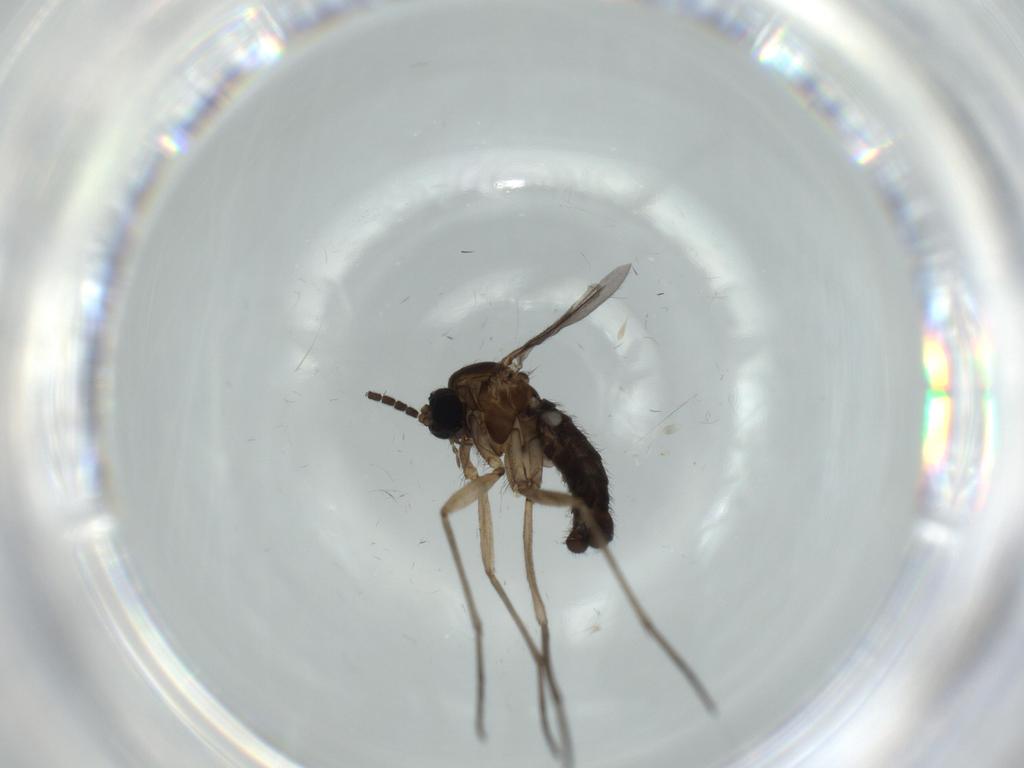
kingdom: Animalia
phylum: Arthropoda
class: Insecta
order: Diptera
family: Sciaridae
